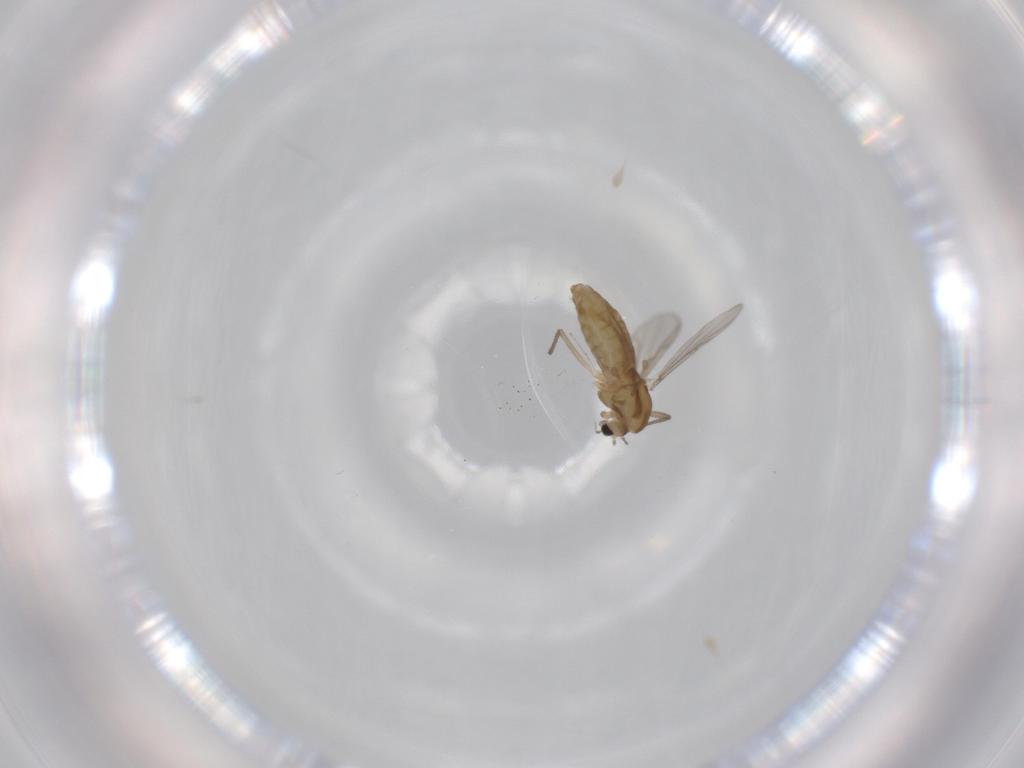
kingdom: Animalia
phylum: Arthropoda
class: Insecta
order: Diptera
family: Chironomidae
